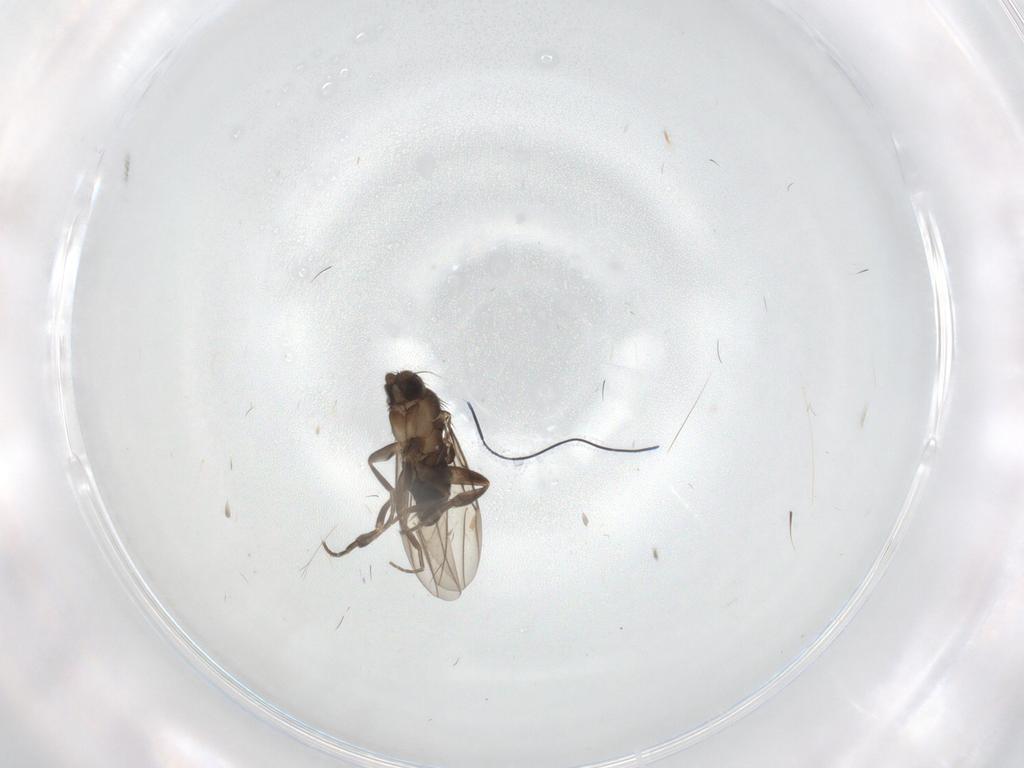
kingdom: Animalia
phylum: Arthropoda
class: Insecta
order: Diptera
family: Phoridae
